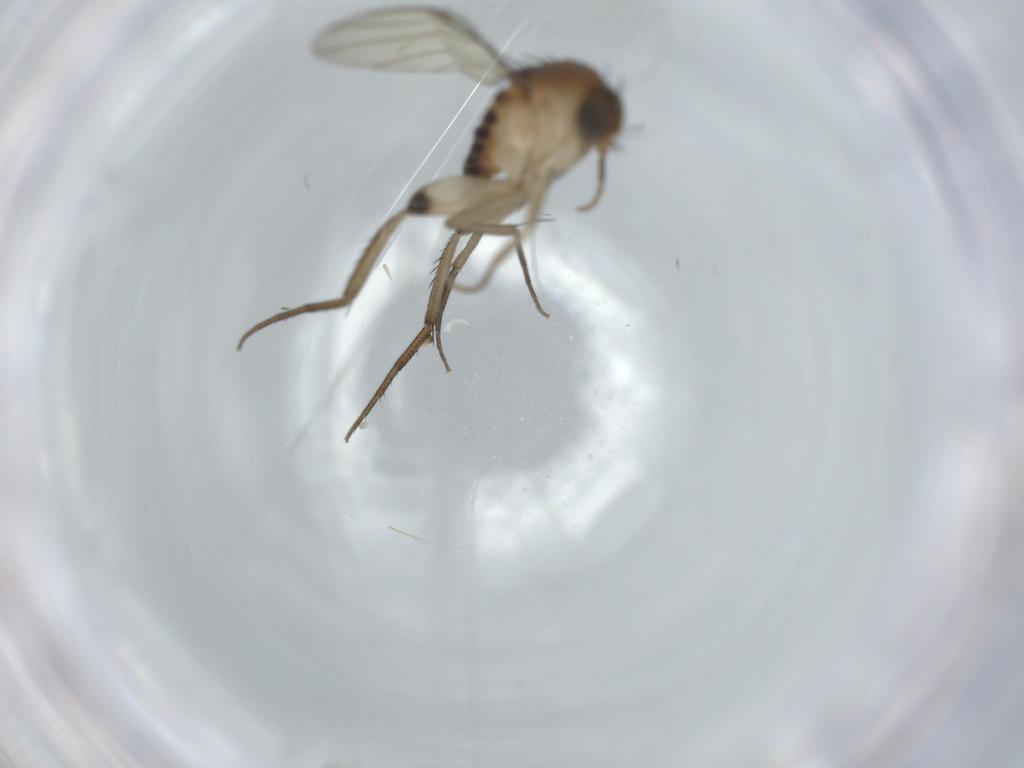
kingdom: Animalia
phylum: Arthropoda
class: Insecta
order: Diptera
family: Phoridae
